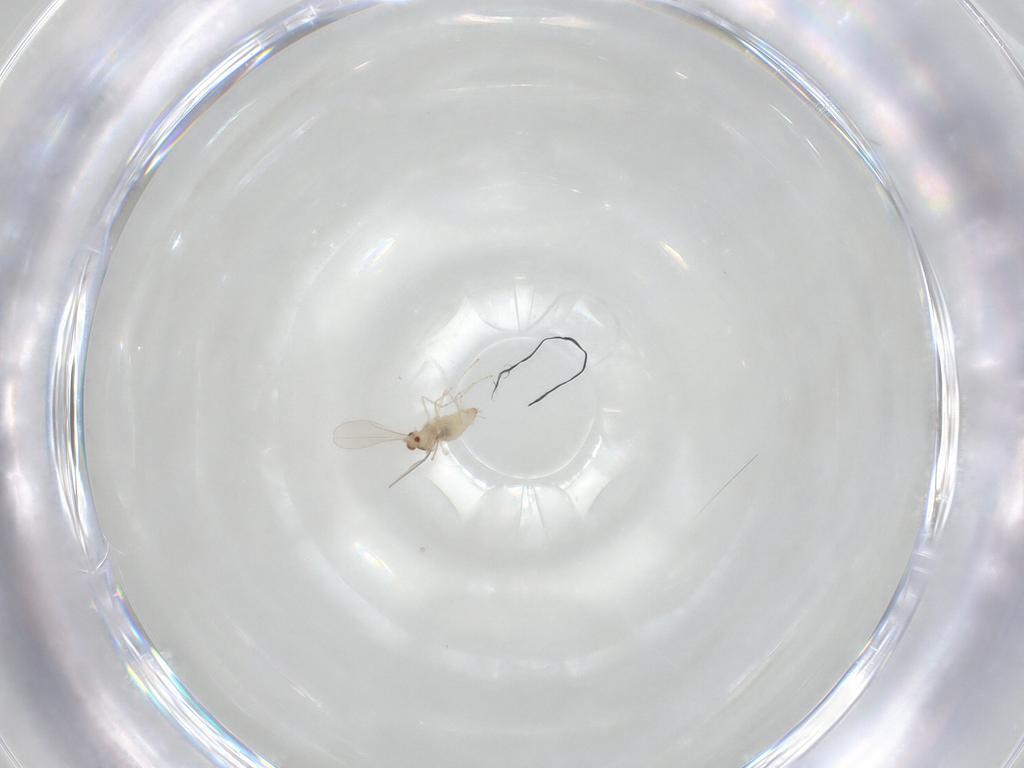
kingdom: Animalia
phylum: Arthropoda
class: Insecta
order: Diptera
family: Cecidomyiidae
